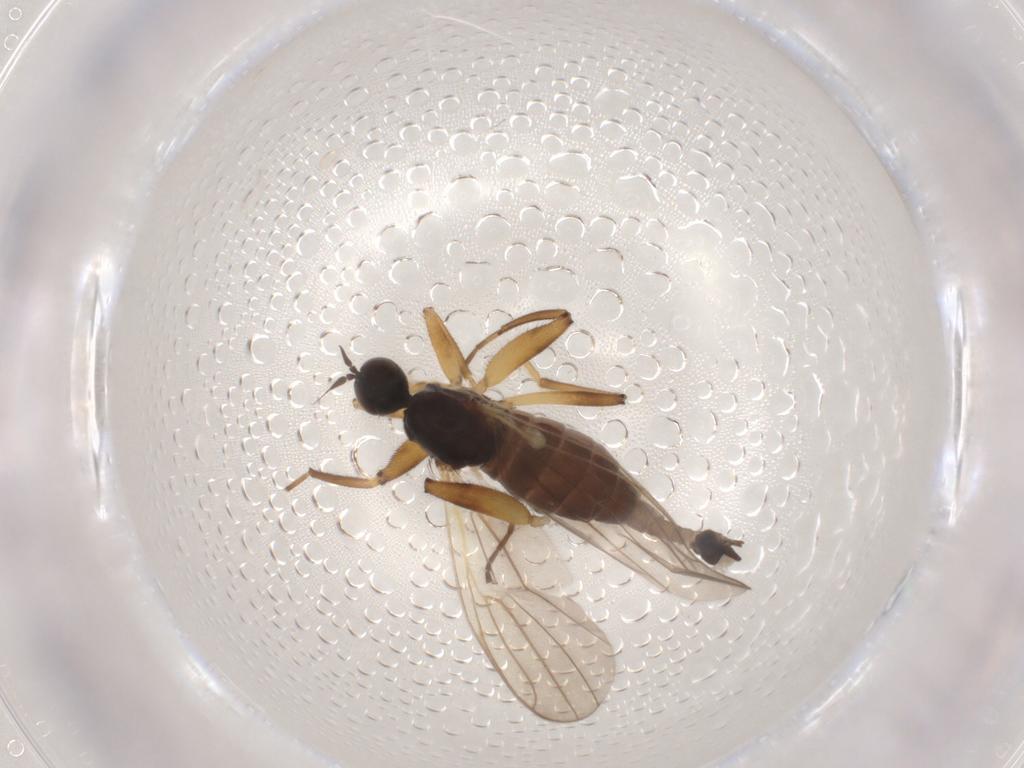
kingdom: Animalia
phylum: Arthropoda
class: Insecta
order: Diptera
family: Hybotidae
